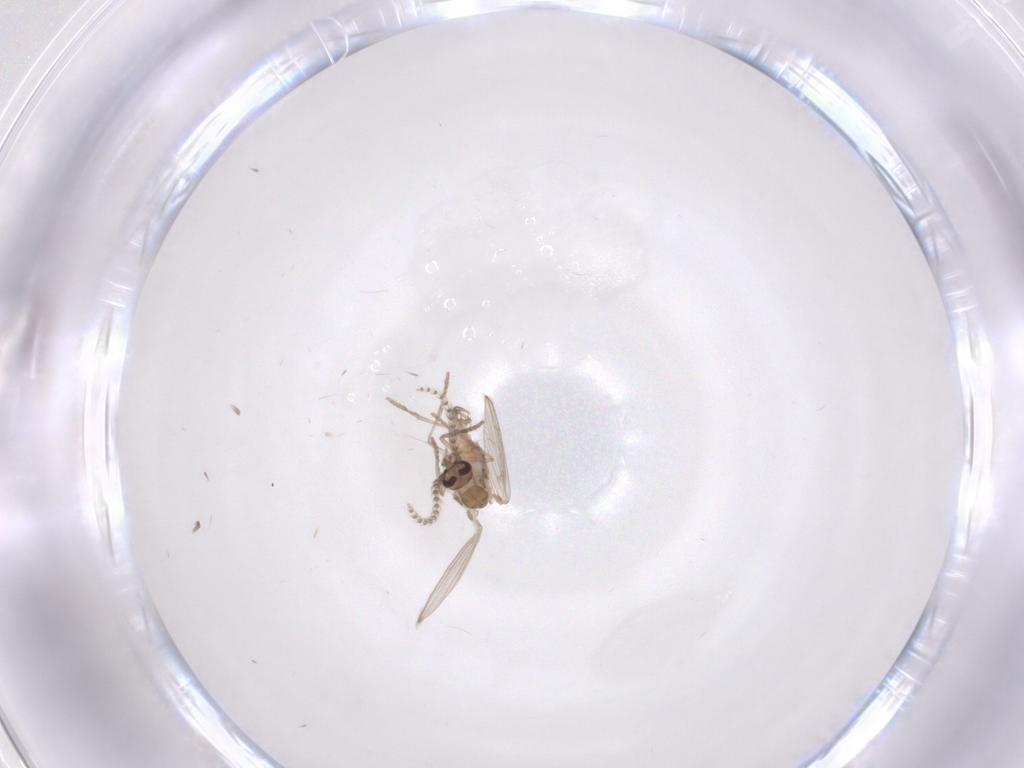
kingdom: Animalia
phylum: Arthropoda
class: Insecta
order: Diptera
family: Psychodidae
